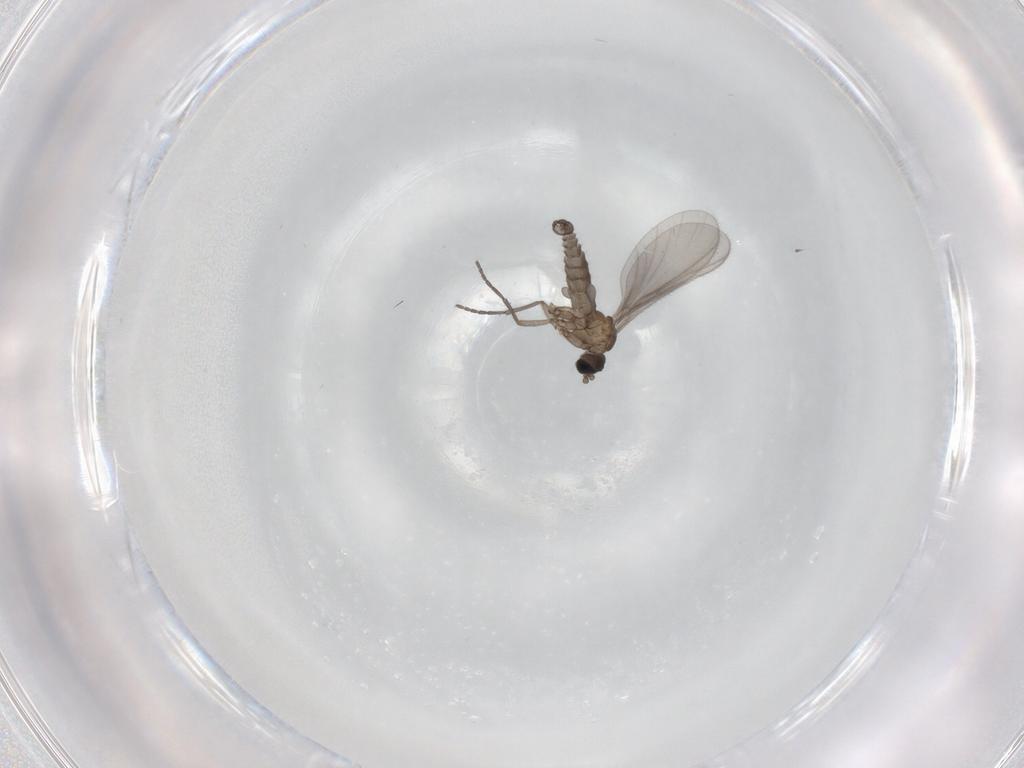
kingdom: Animalia
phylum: Arthropoda
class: Insecta
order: Diptera
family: Sciaridae
